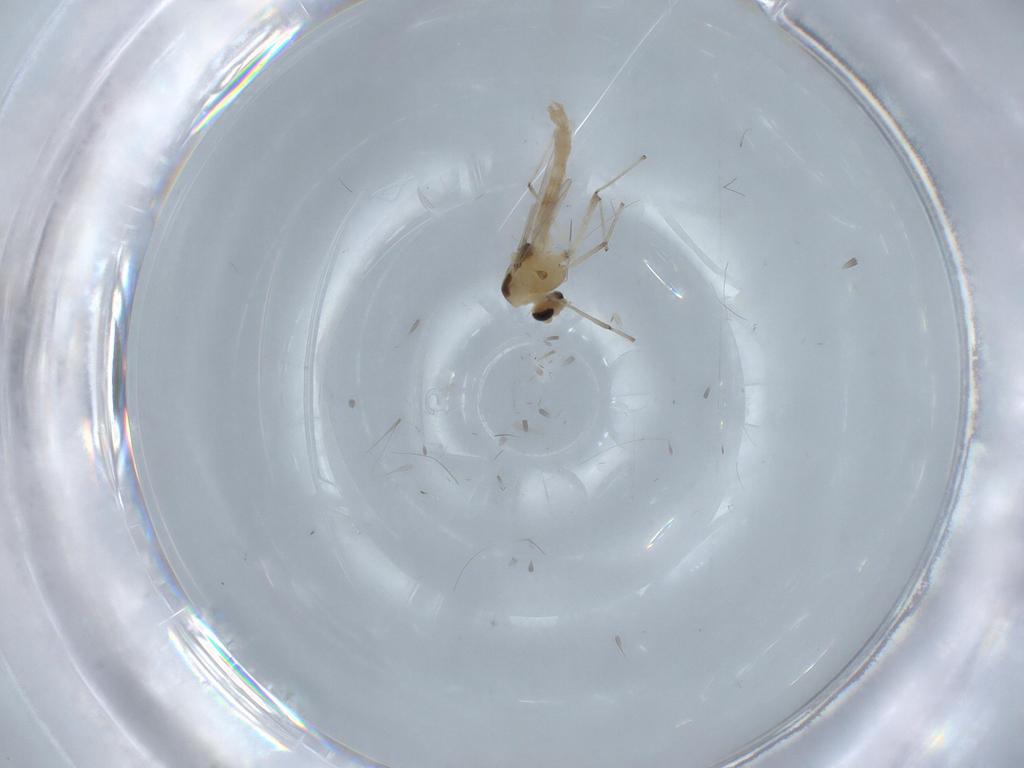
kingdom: Animalia
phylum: Arthropoda
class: Insecta
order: Diptera
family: Chironomidae
